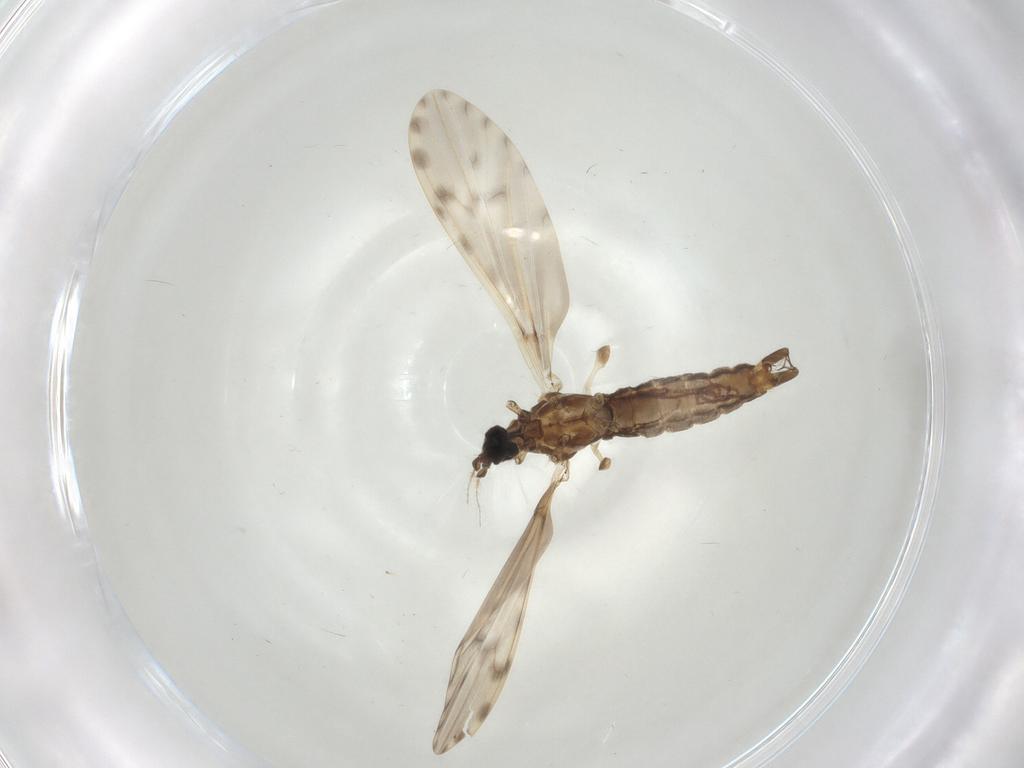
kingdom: Animalia
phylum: Arthropoda
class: Insecta
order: Diptera
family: Limoniidae
